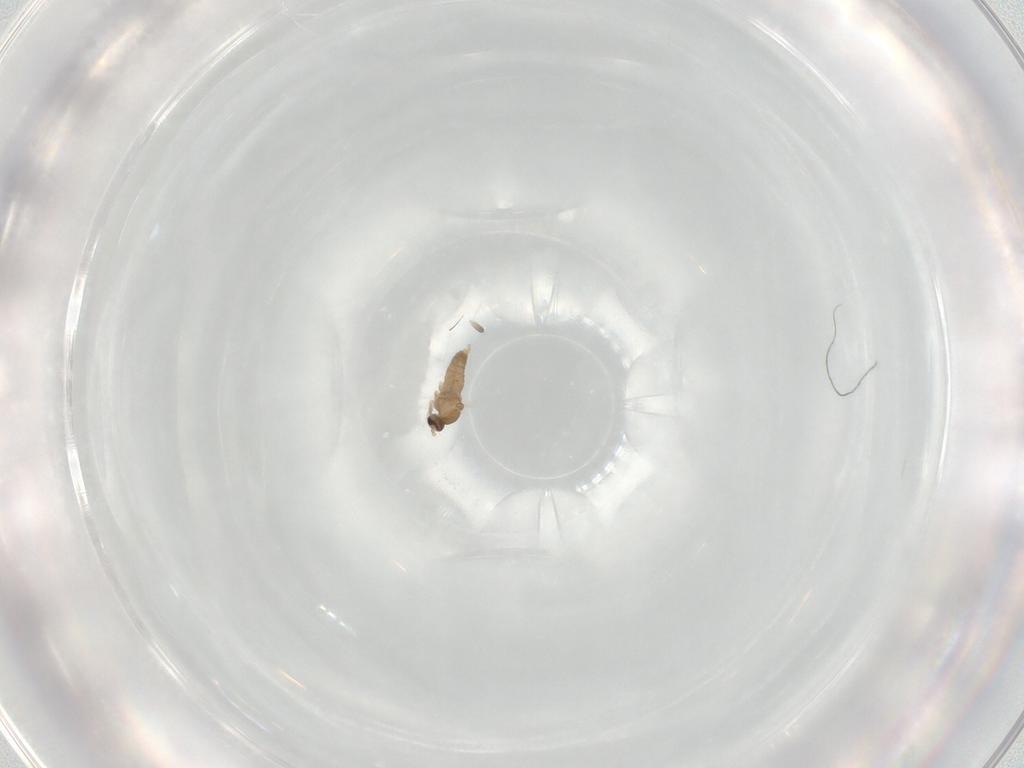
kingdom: Animalia
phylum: Arthropoda
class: Insecta
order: Diptera
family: Cecidomyiidae
